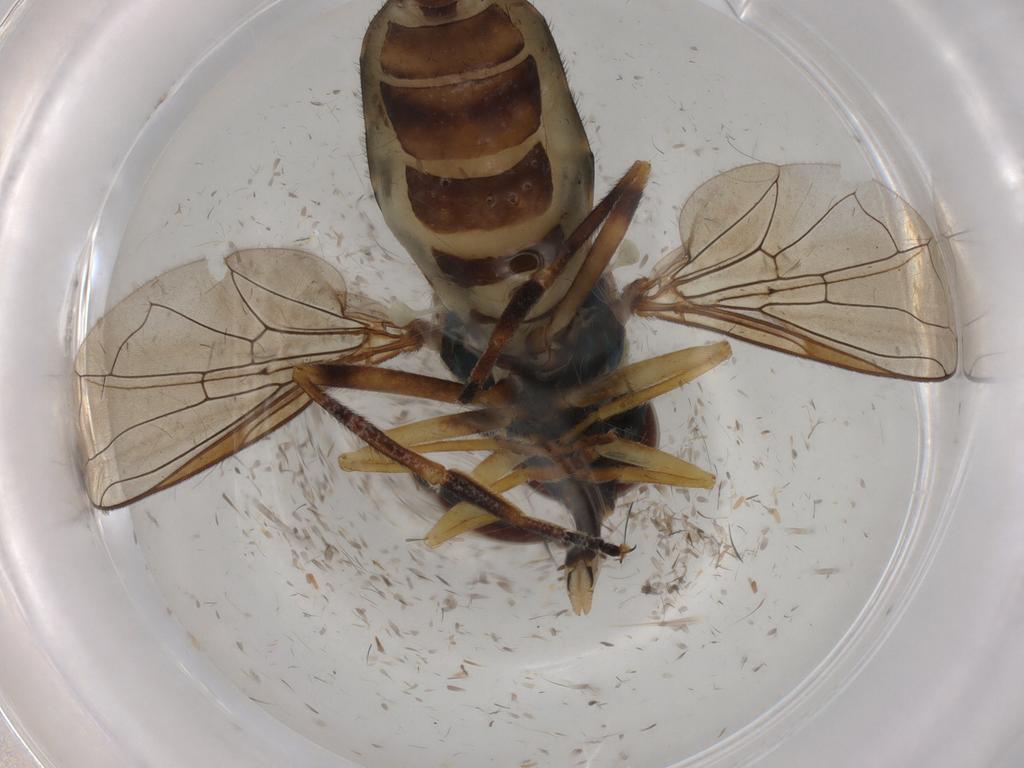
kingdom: Animalia
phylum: Arthropoda
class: Insecta
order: Diptera
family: Syrphidae
